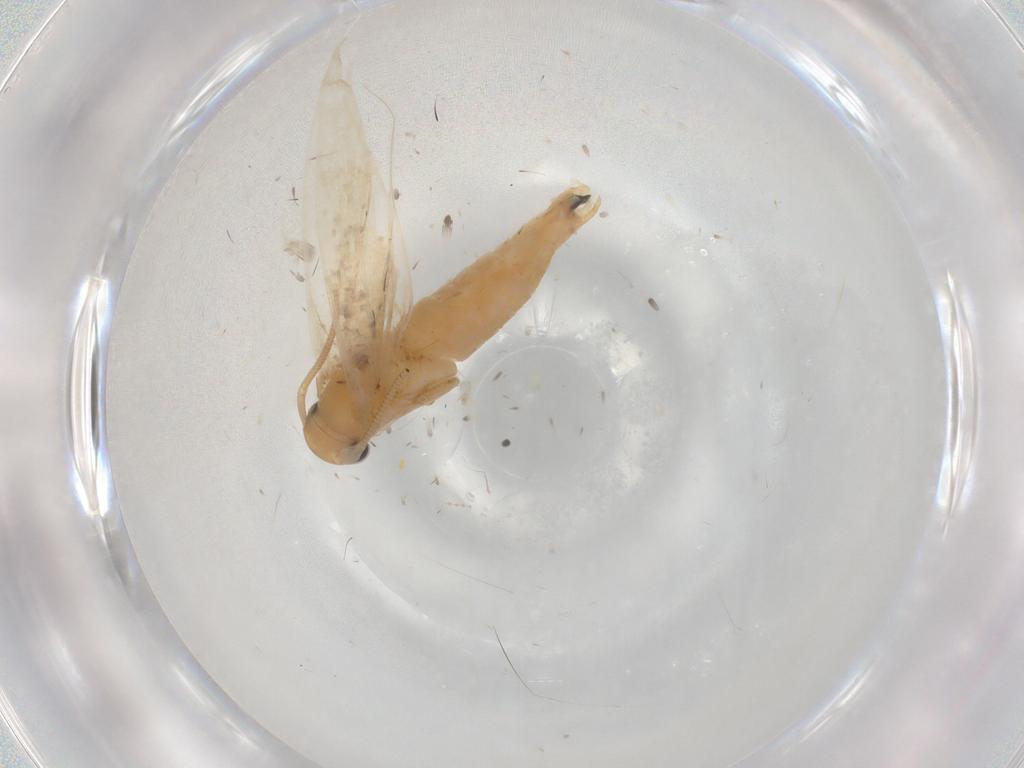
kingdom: Animalia
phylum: Arthropoda
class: Insecta
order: Lepidoptera
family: Tineidae
